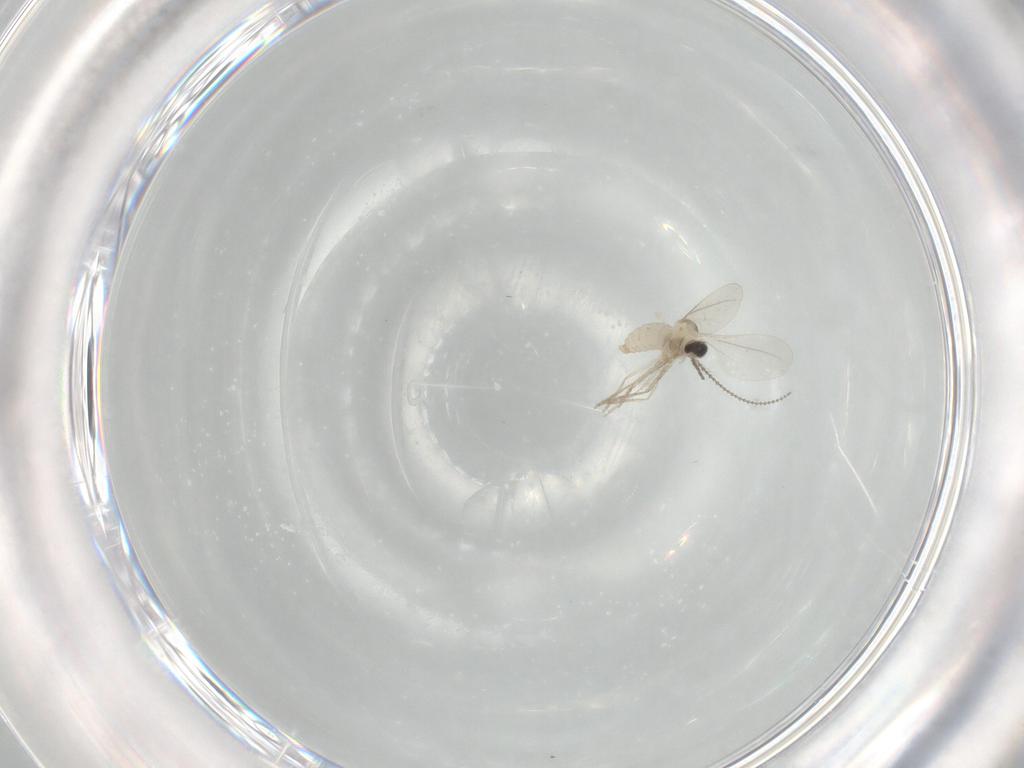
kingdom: Animalia
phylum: Arthropoda
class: Insecta
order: Diptera
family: Cecidomyiidae
